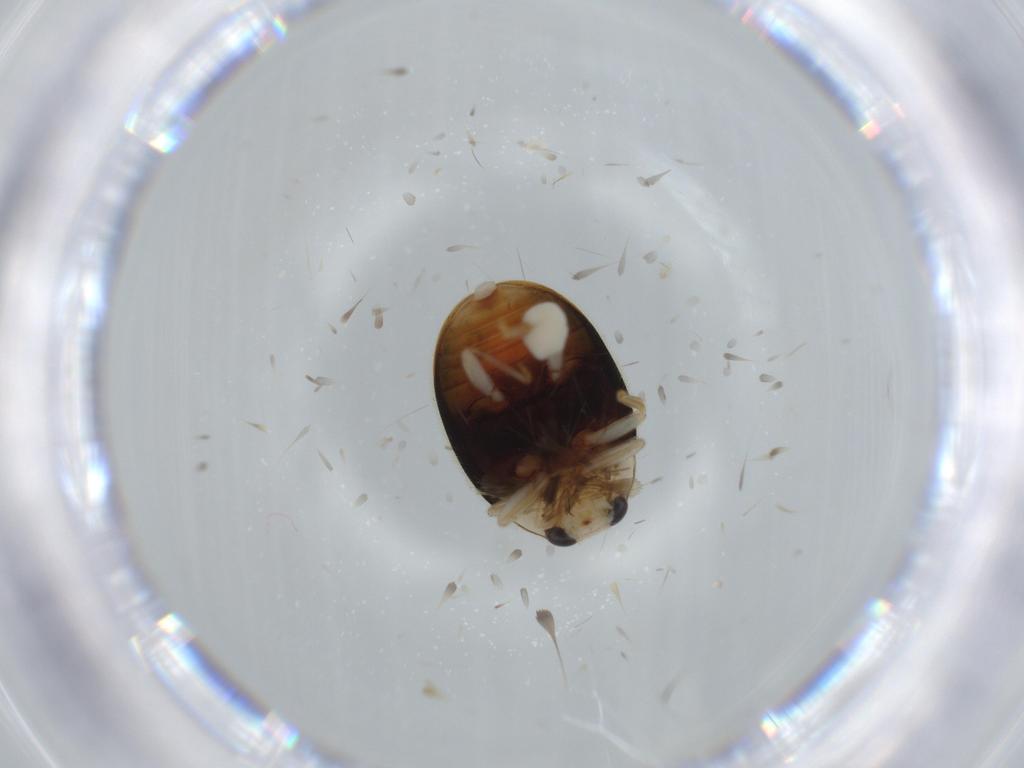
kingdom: Animalia
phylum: Arthropoda
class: Insecta
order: Coleoptera
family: Coccinellidae
